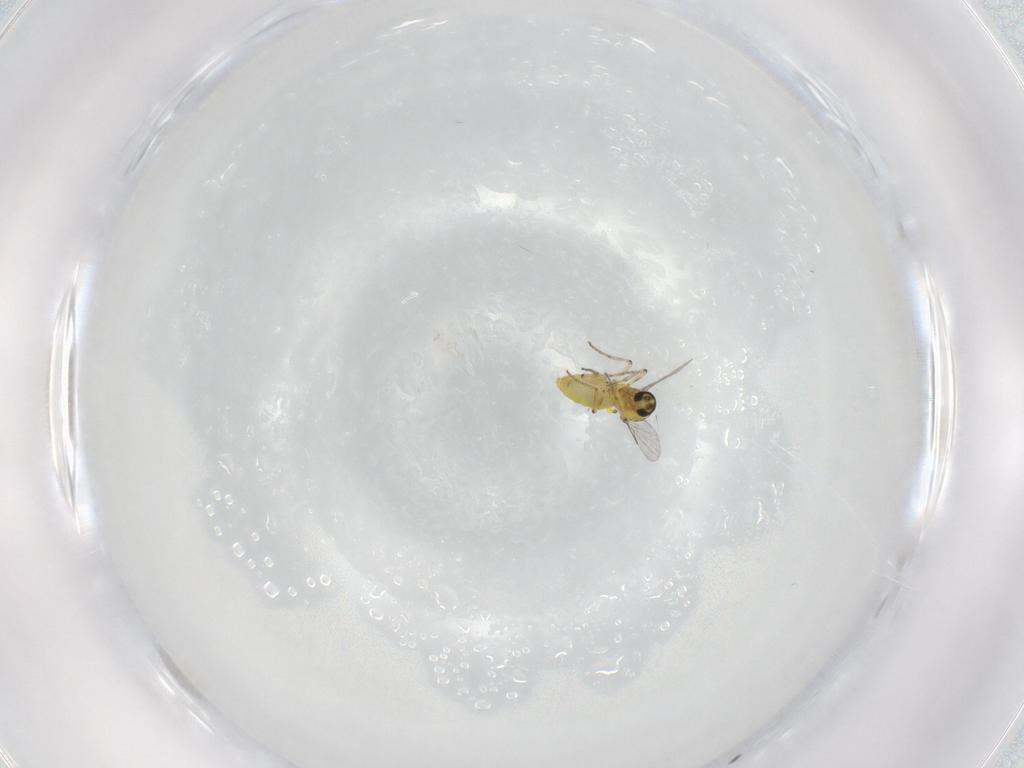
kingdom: Animalia
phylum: Arthropoda
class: Insecta
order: Diptera
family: Ceratopogonidae
